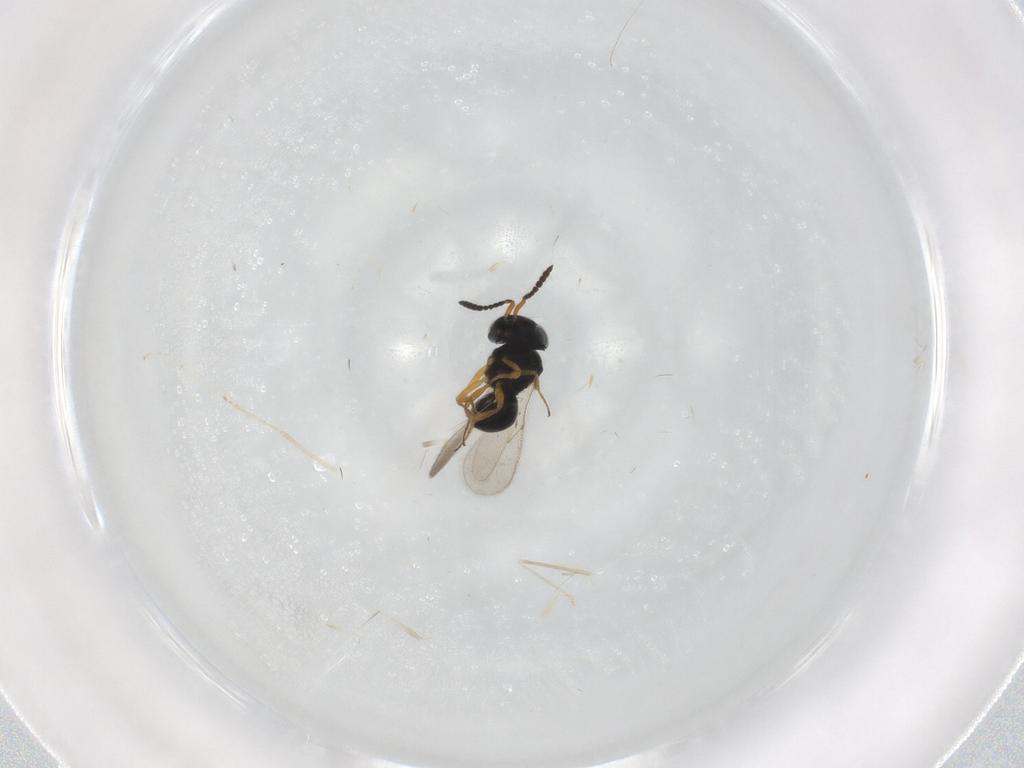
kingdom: Animalia
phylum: Arthropoda
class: Insecta
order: Hymenoptera
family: Scelionidae
